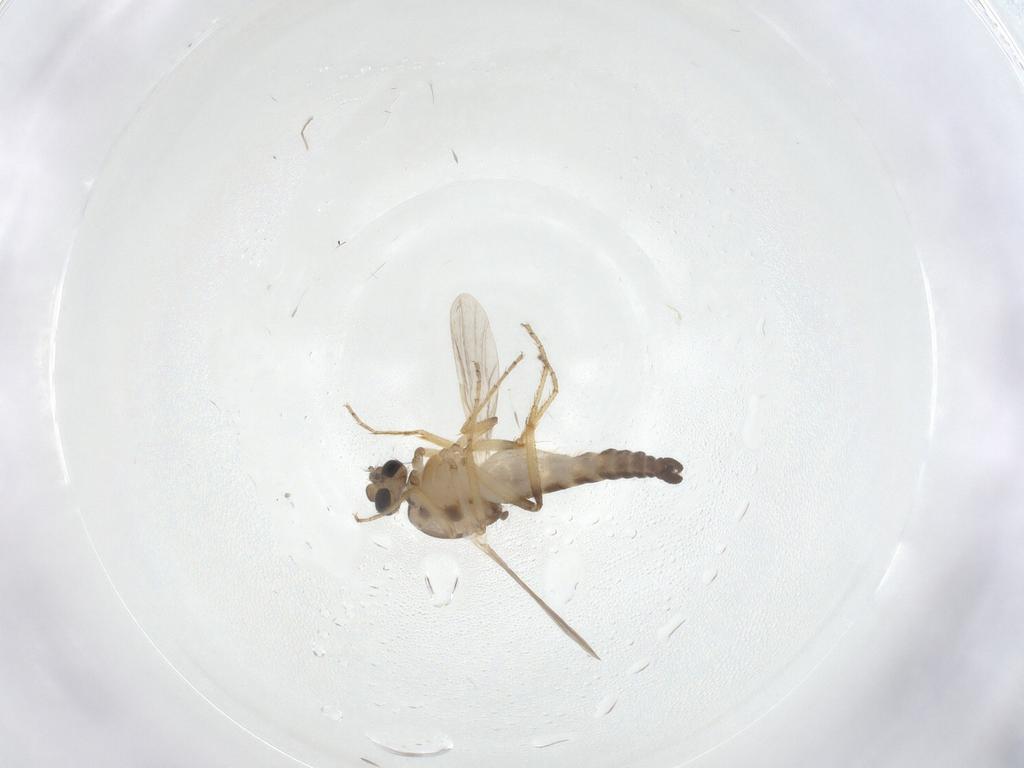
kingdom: Animalia
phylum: Arthropoda
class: Insecta
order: Diptera
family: Ceratopogonidae
